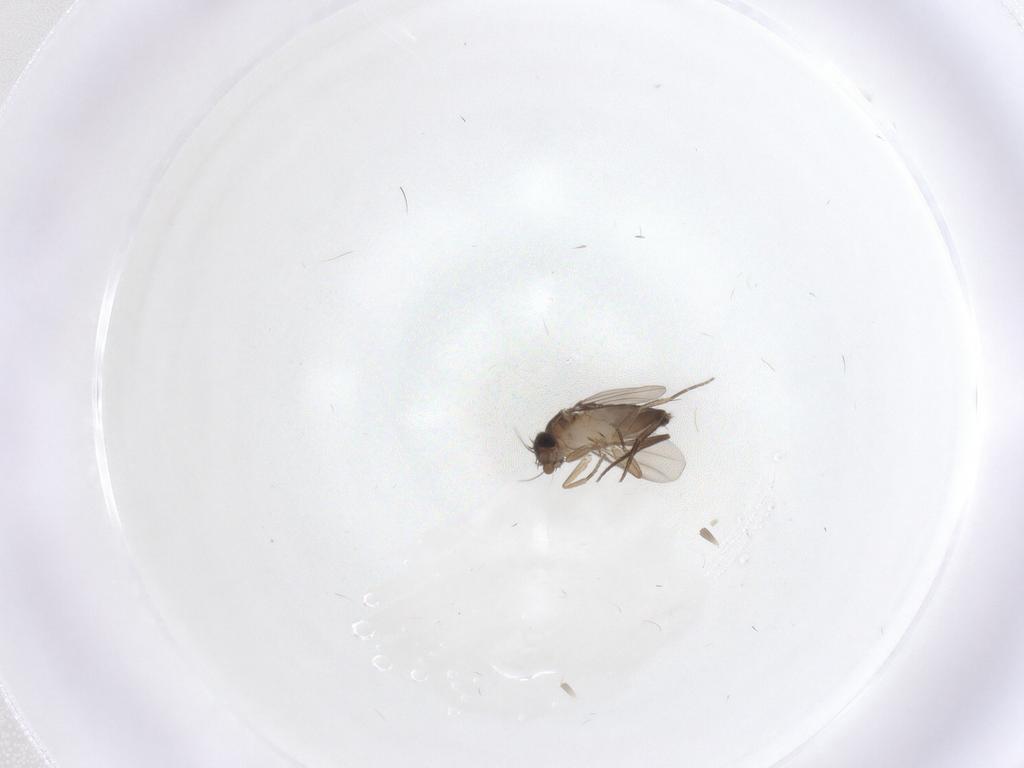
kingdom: Animalia
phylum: Arthropoda
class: Insecta
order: Diptera
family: Phoridae
